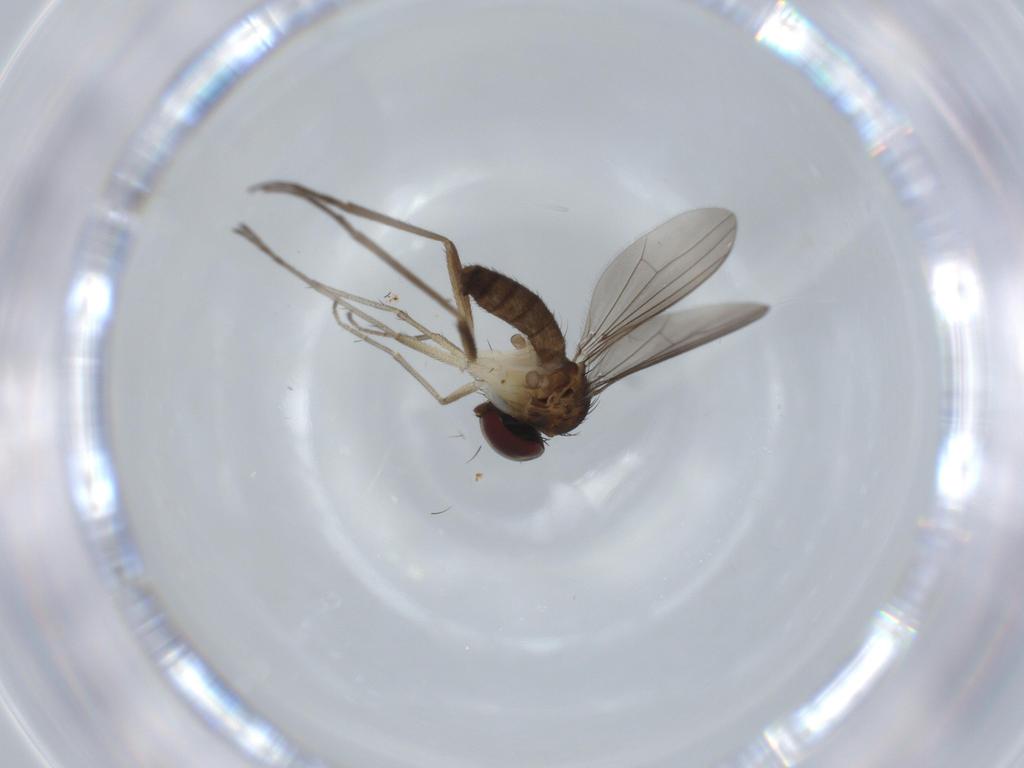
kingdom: Animalia
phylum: Arthropoda
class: Insecta
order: Diptera
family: Dolichopodidae
